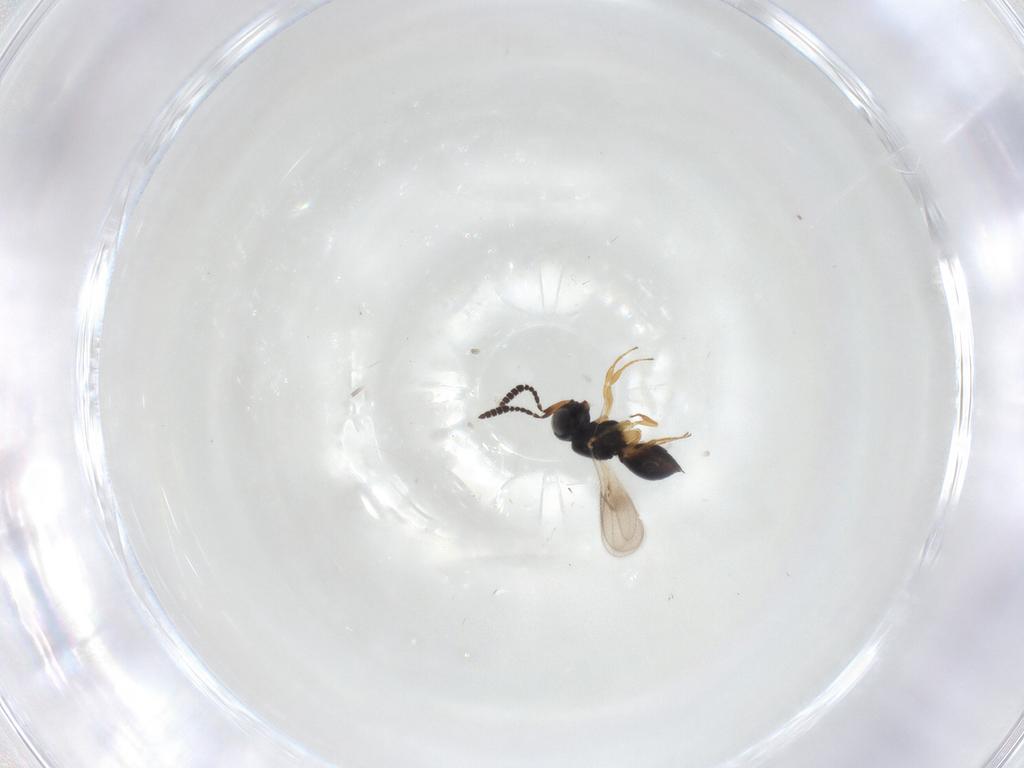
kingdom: Animalia
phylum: Arthropoda
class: Insecta
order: Hymenoptera
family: Scelionidae
